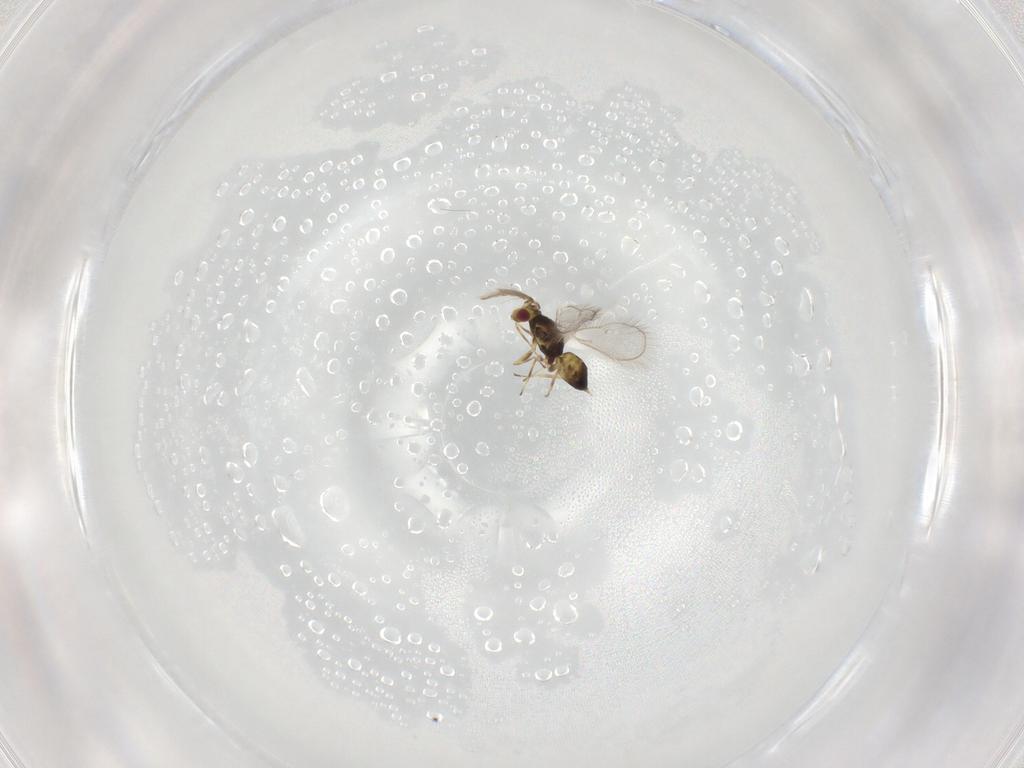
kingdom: Animalia
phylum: Arthropoda
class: Insecta
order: Hymenoptera
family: Eulophidae
